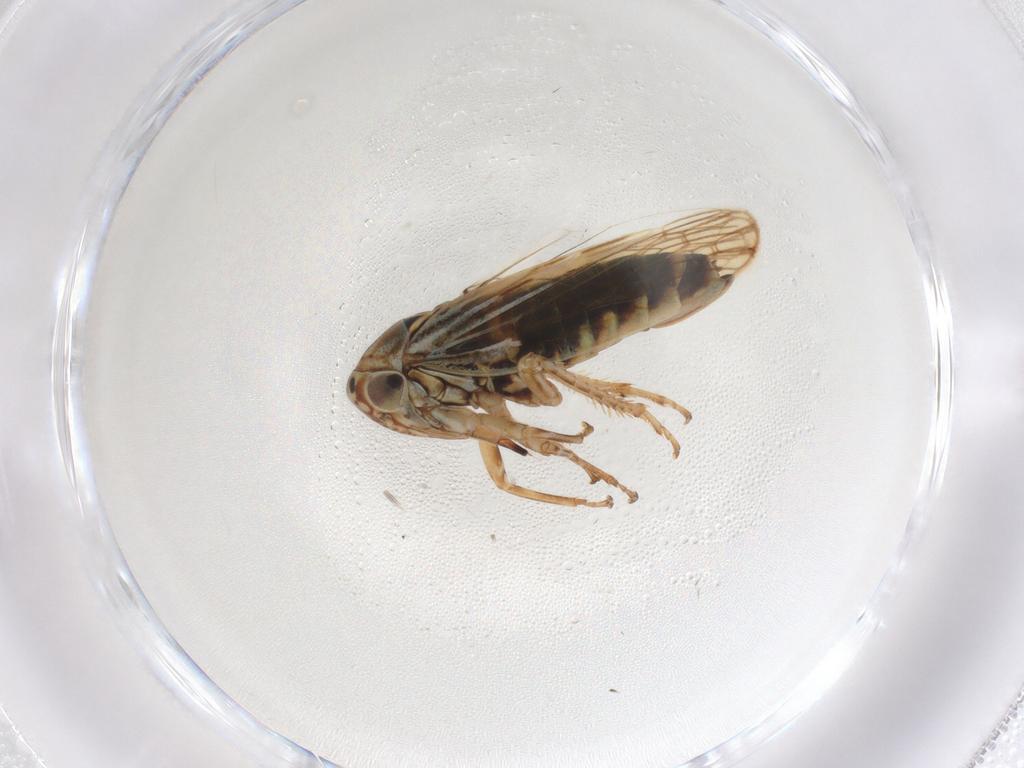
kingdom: Animalia
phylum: Arthropoda
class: Insecta
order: Hemiptera
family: Cicadellidae
